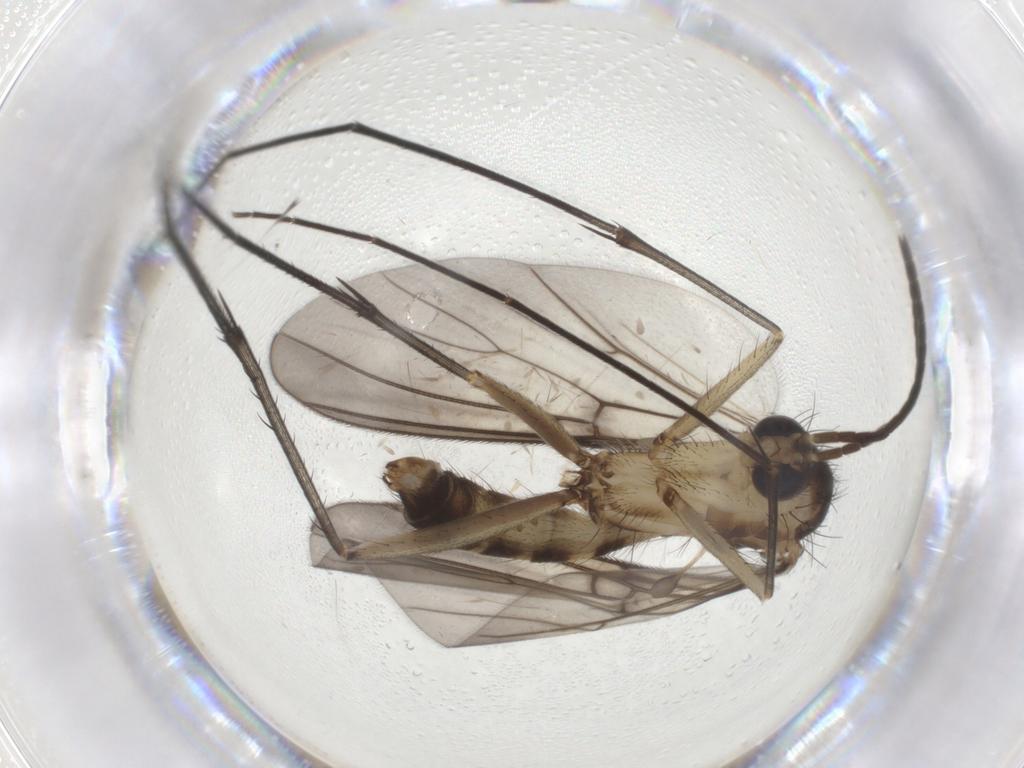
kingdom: Animalia
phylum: Arthropoda
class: Insecta
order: Diptera
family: Mycetophilidae
